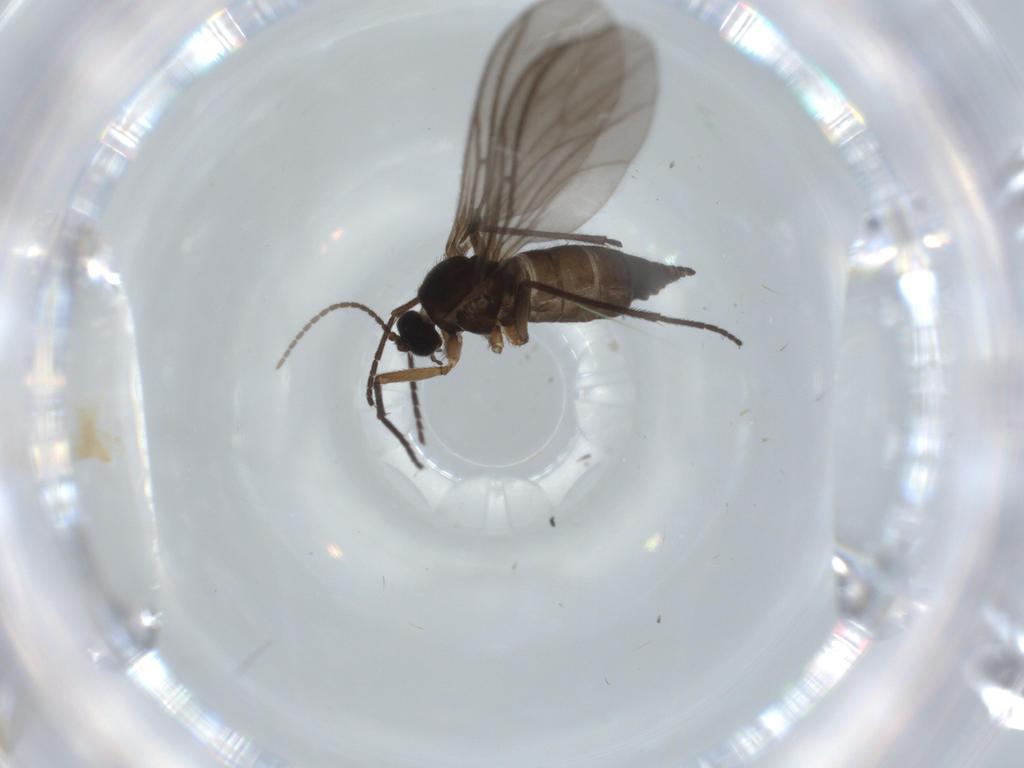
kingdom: Animalia
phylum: Arthropoda
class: Insecta
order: Diptera
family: Sciaridae
